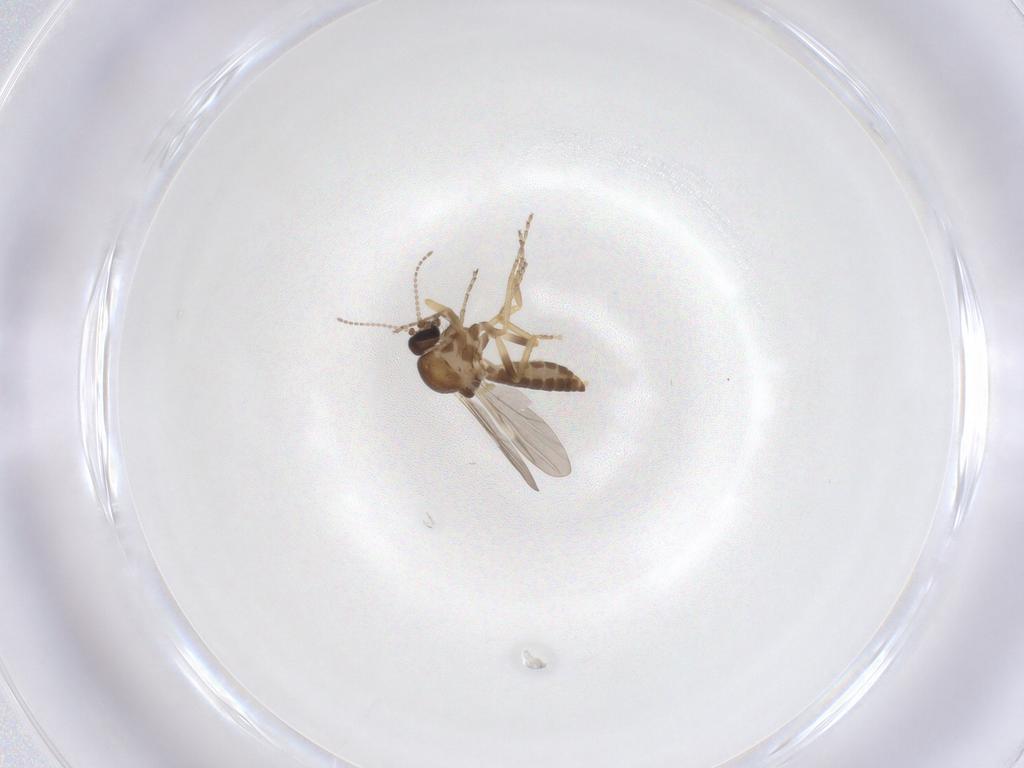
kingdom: Animalia
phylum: Arthropoda
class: Insecta
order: Diptera
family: Ceratopogonidae
